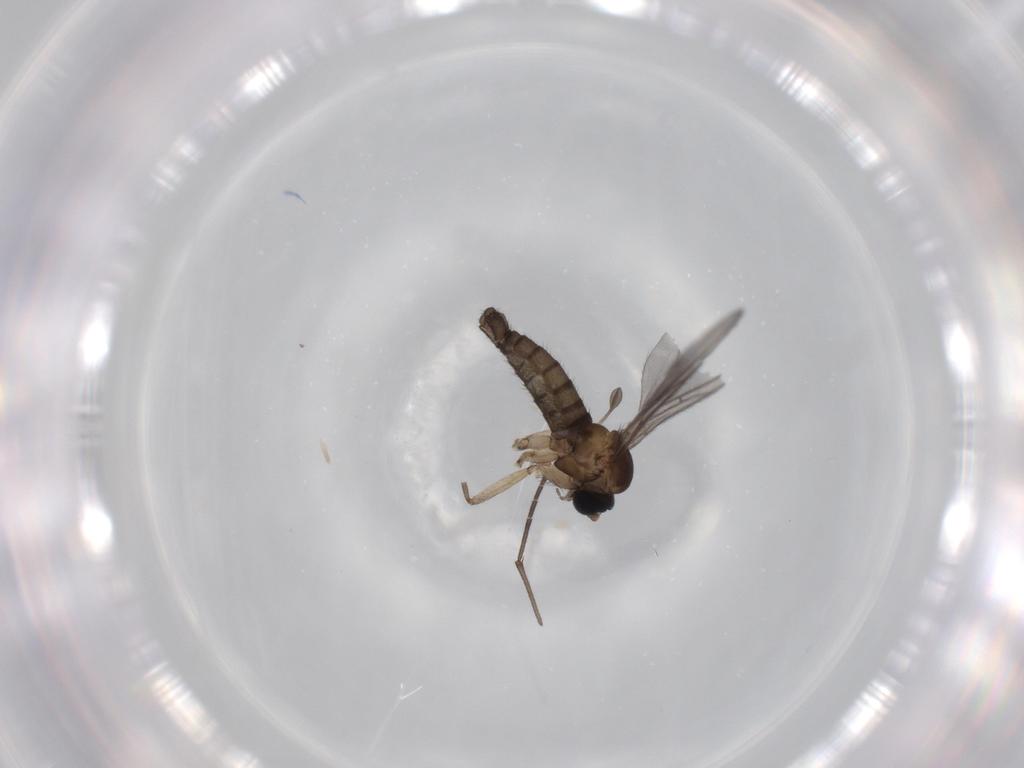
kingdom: Animalia
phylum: Arthropoda
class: Insecta
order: Diptera
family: Sciaridae
